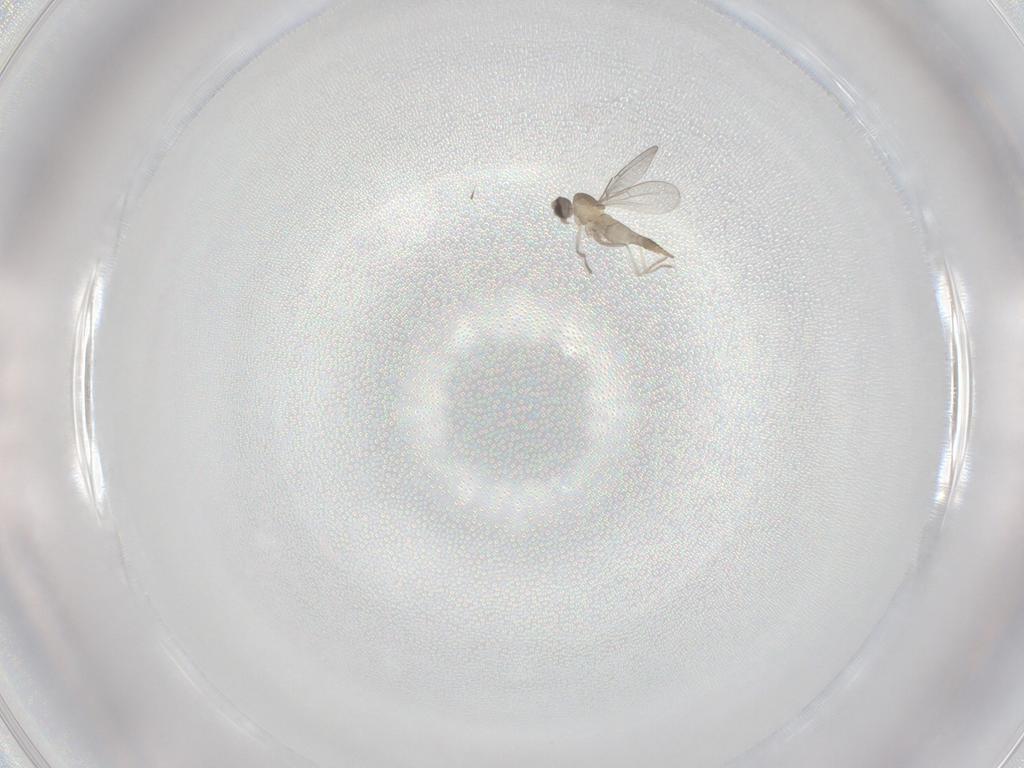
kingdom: Animalia
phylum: Arthropoda
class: Insecta
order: Diptera
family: Cecidomyiidae
